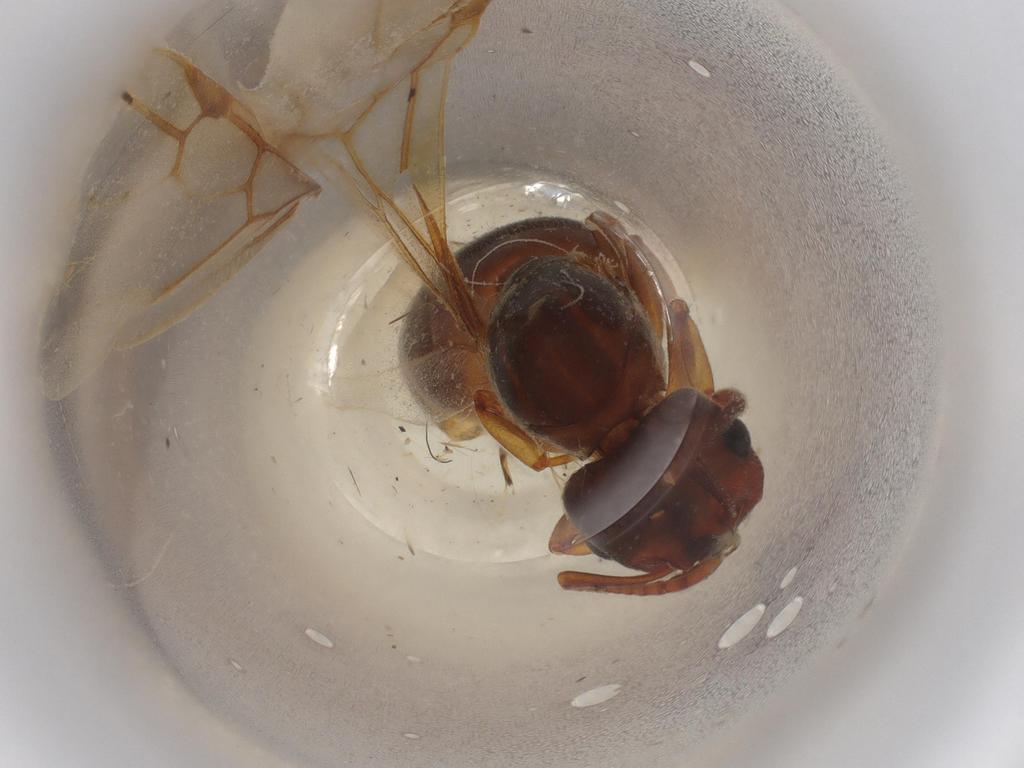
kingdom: Animalia
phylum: Arthropoda
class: Insecta
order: Hymenoptera
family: Formicidae
